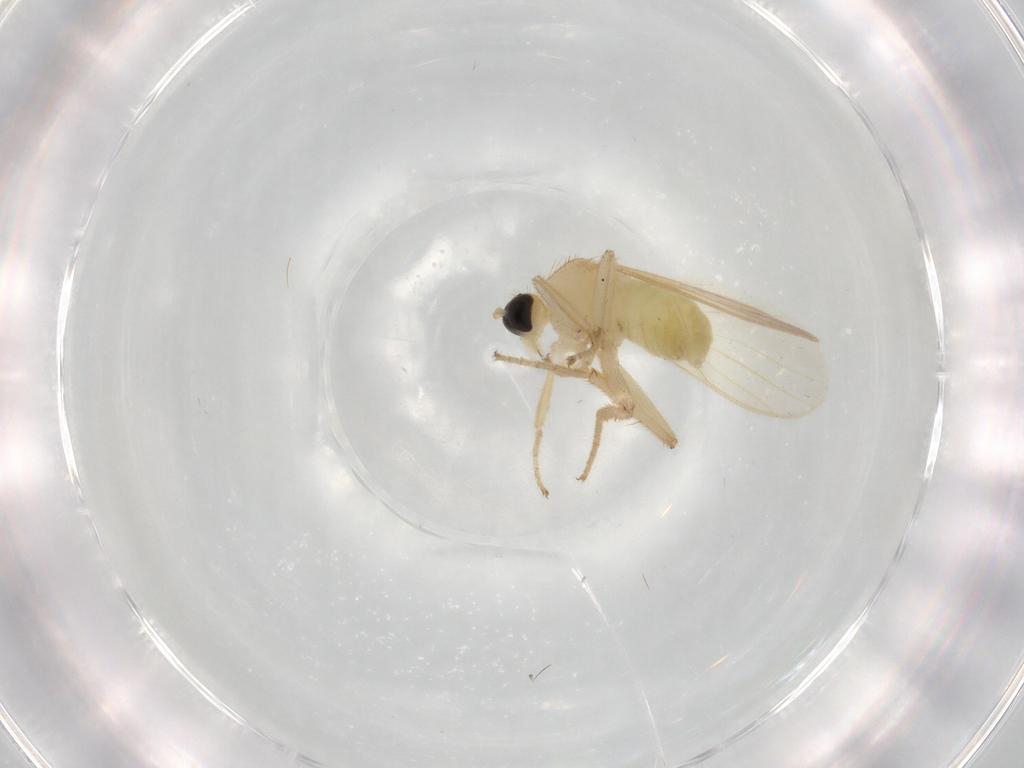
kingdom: Animalia
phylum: Arthropoda
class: Insecta
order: Diptera
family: Hybotidae
